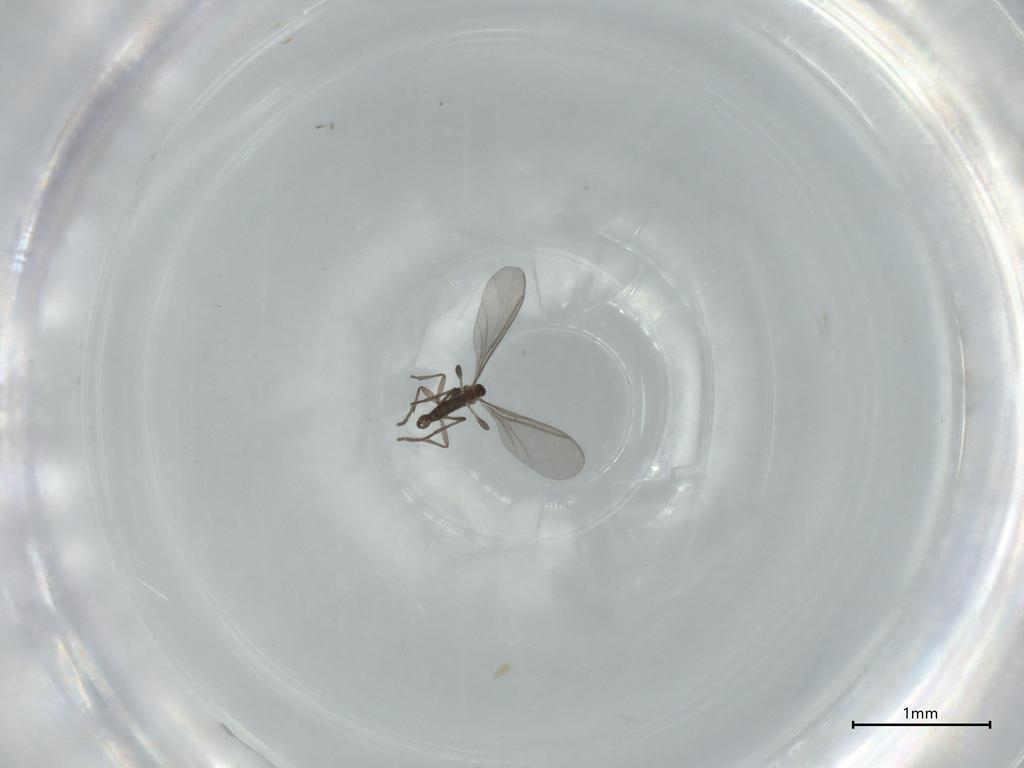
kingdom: Animalia
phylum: Arthropoda
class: Insecta
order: Diptera
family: Cecidomyiidae
